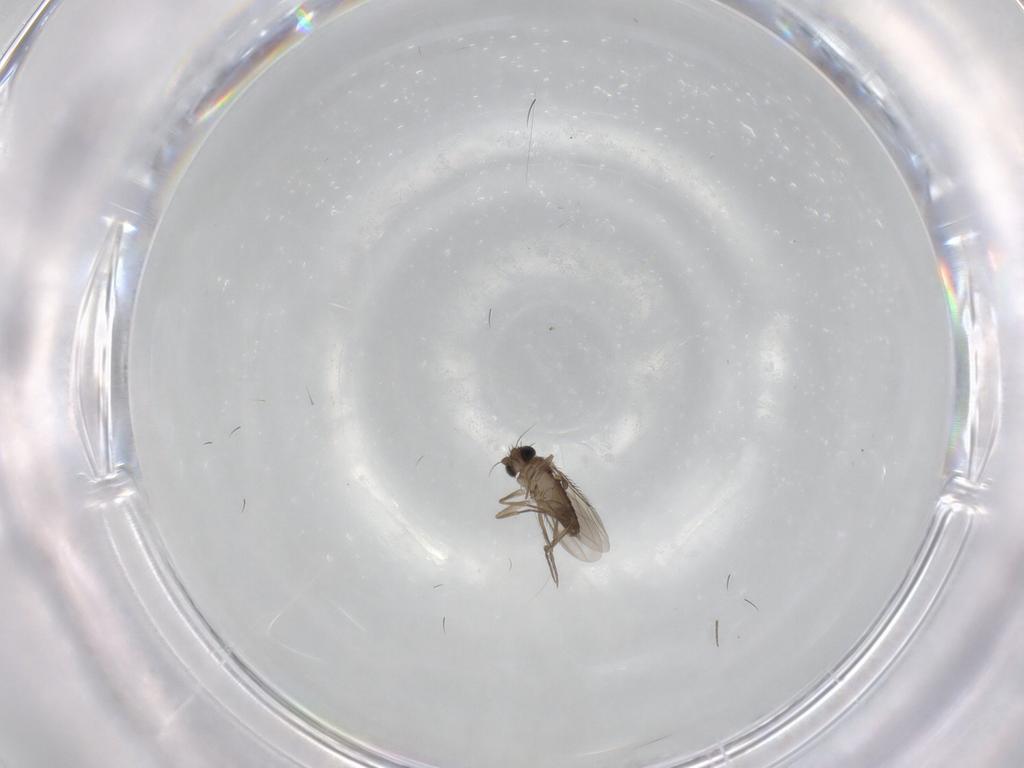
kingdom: Animalia
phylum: Arthropoda
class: Insecta
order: Diptera
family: Phoridae
